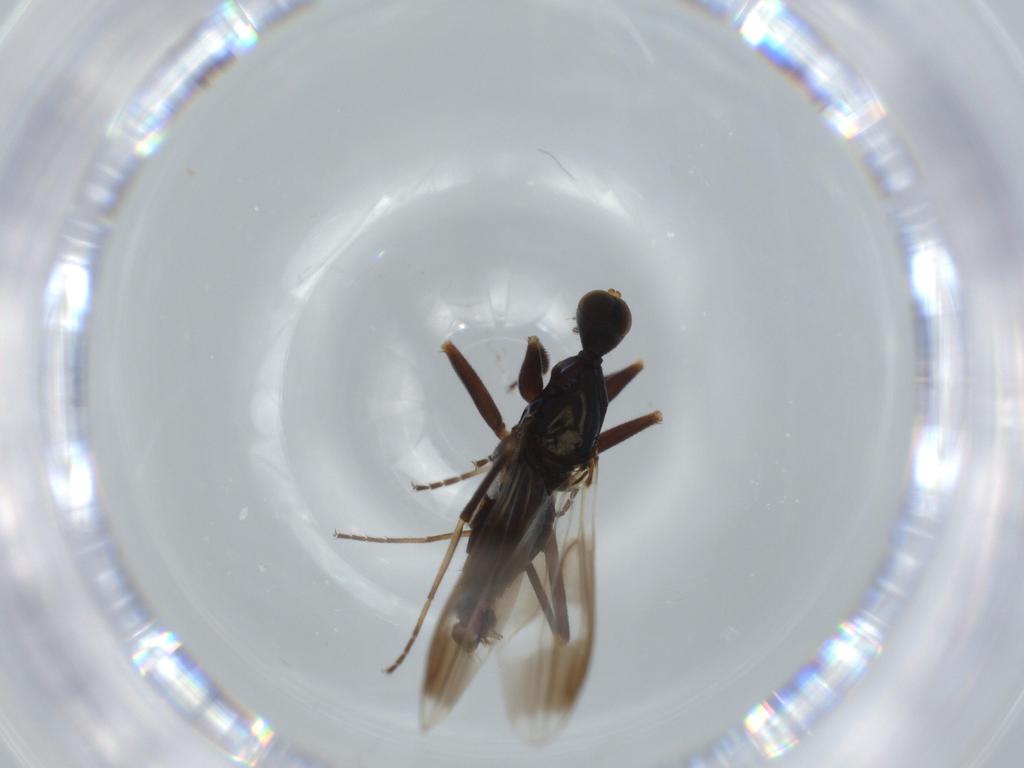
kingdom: Animalia
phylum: Arthropoda
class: Insecta
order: Diptera
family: Hybotidae
